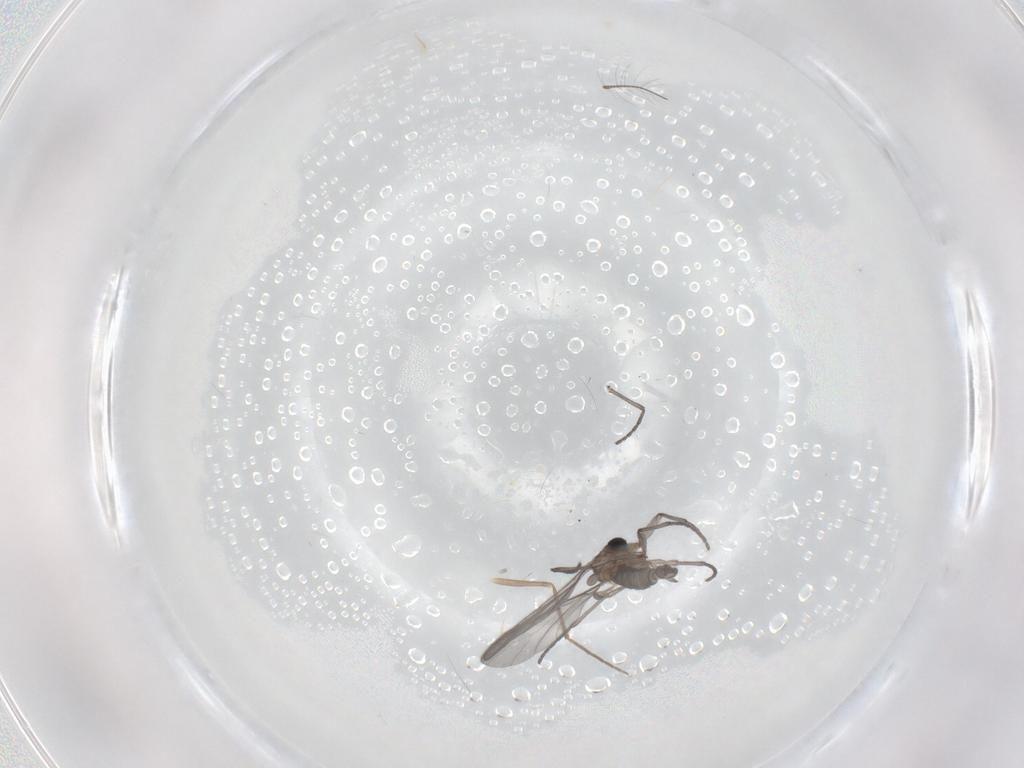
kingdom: Animalia
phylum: Arthropoda
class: Insecta
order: Diptera
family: Sciaridae
